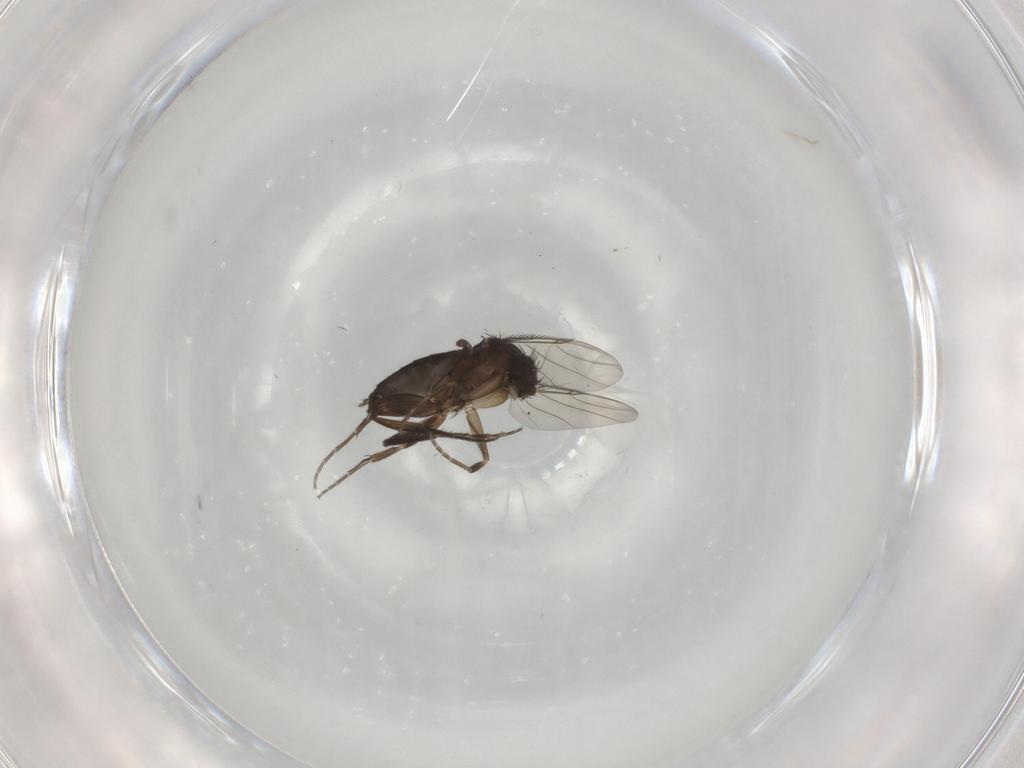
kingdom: Animalia
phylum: Arthropoda
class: Insecta
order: Diptera
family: Phoridae
